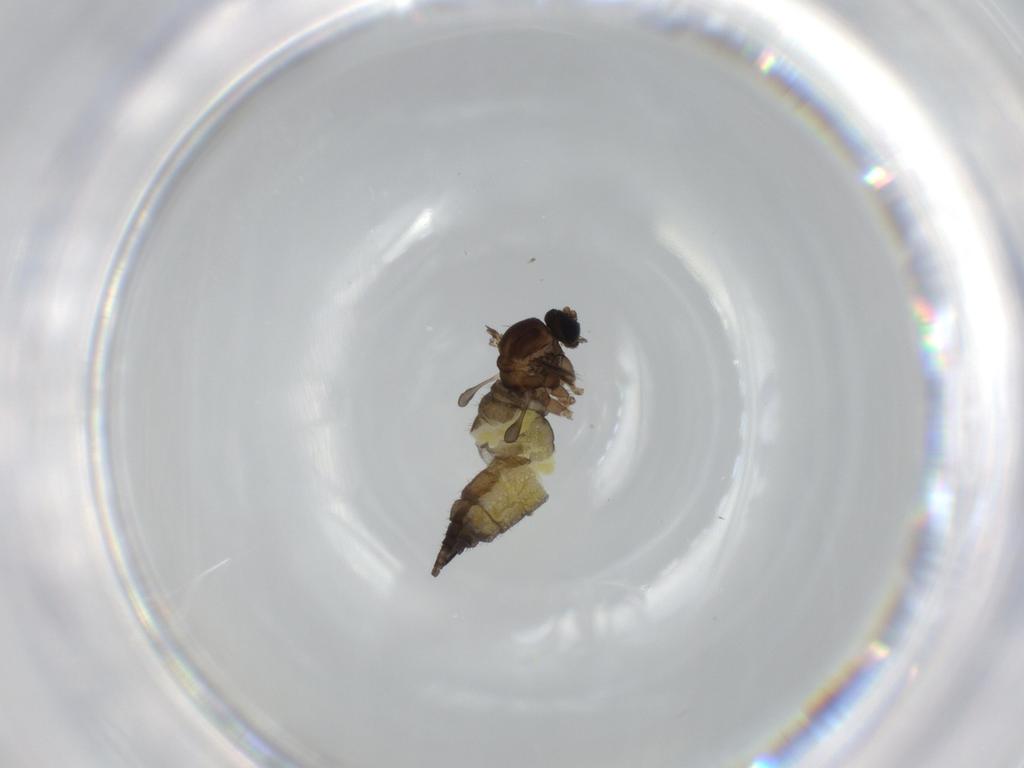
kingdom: Animalia
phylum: Arthropoda
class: Insecta
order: Diptera
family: Sciaridae
